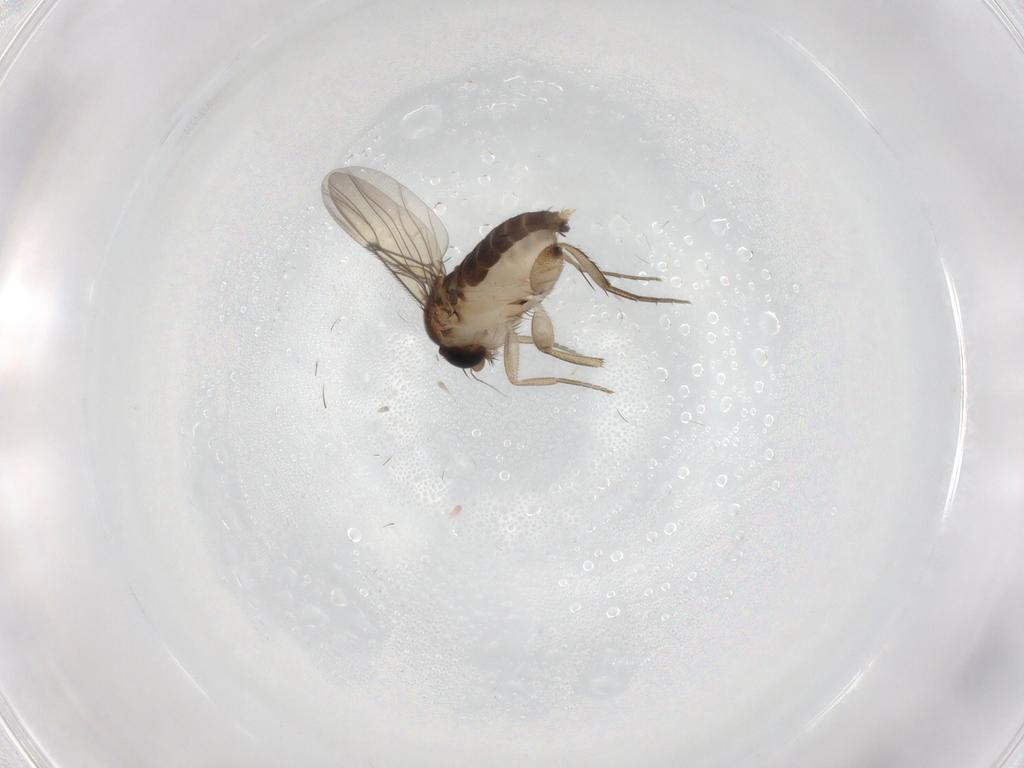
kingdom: Animalia
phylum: Arthropoda
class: Insecta
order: Diptera
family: Phoridae
